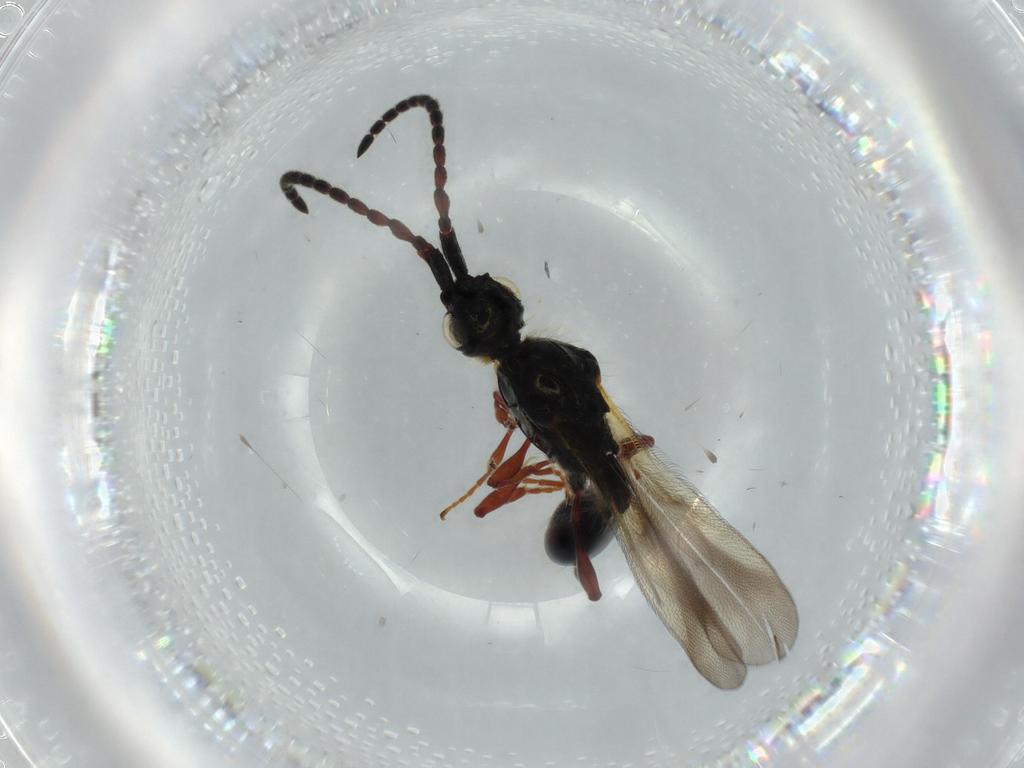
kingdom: Animalia
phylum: Arthropoda
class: Insecta
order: Hymenoptera
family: Diapriidae
